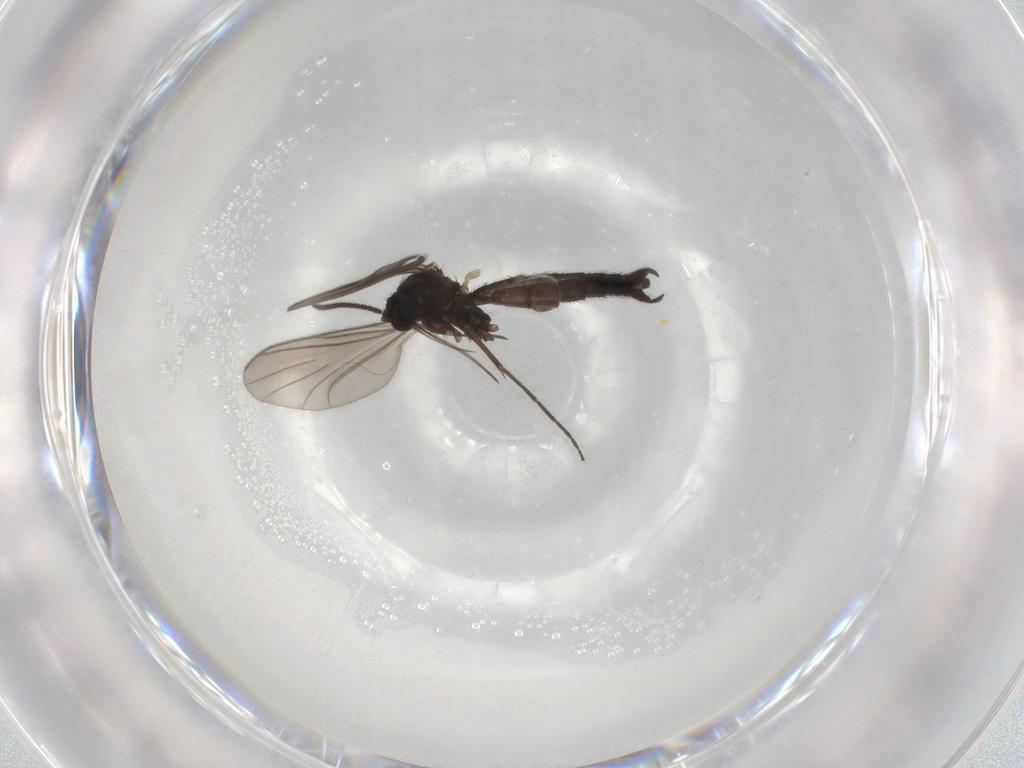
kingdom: Animalia
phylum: Arthropoda
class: Insecta
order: Diptera
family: Keroplatidae
